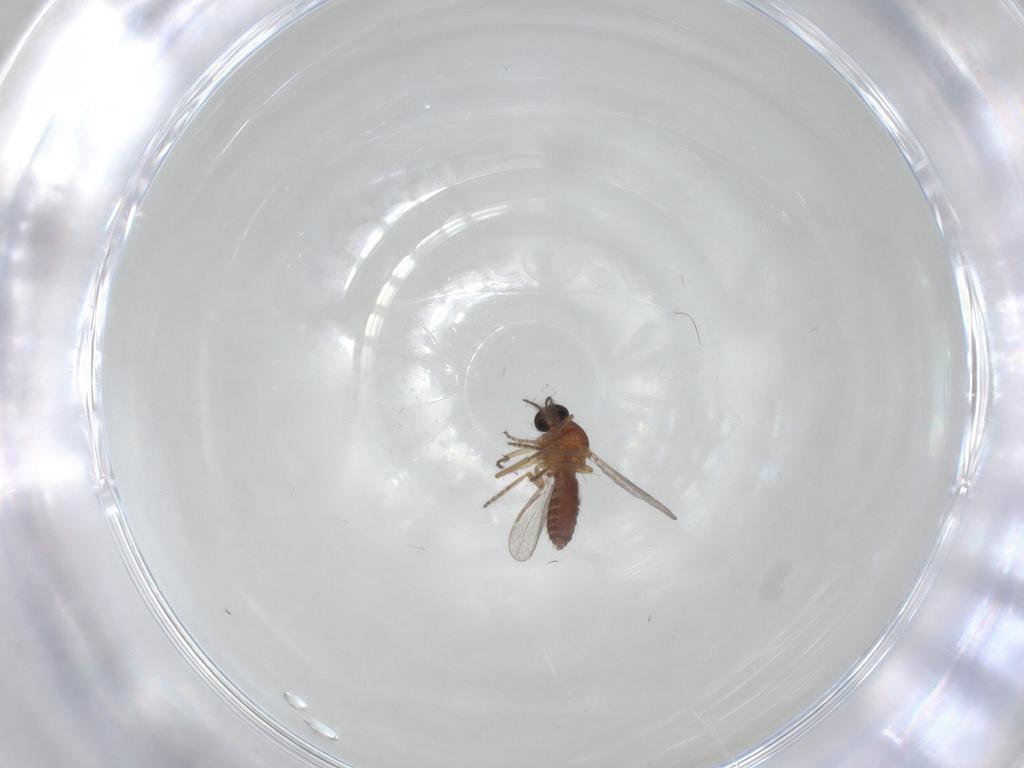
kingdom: Animalia
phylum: Arthropoda
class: Insecta
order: Diptera
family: Ceratopogonidae
